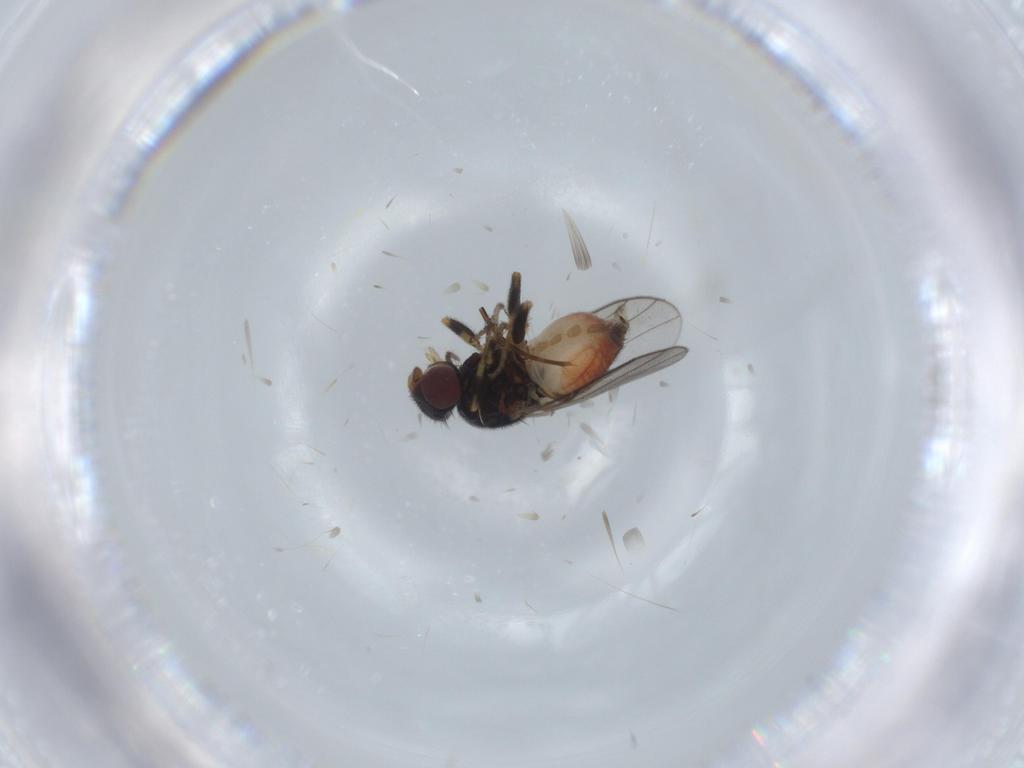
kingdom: Animalia
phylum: Arthropoda
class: Insecta
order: Diptera
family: Chloropidae
